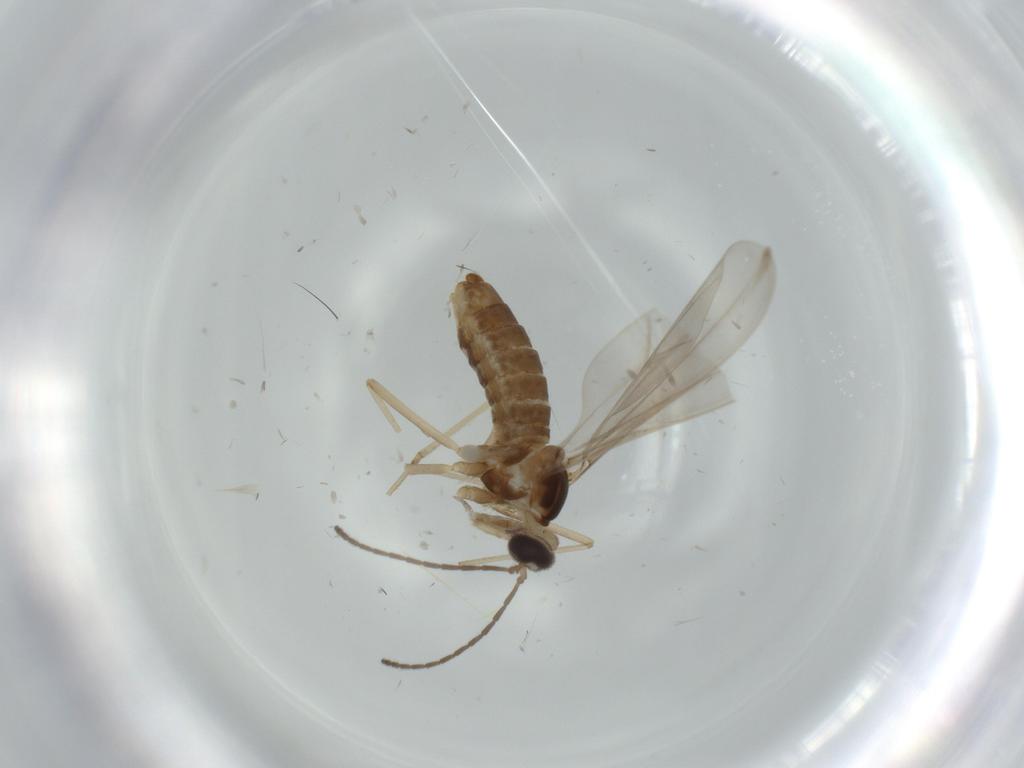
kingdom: Animalia
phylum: Arthropoda
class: Insecta
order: Diptera
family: Cecidomyiidae
